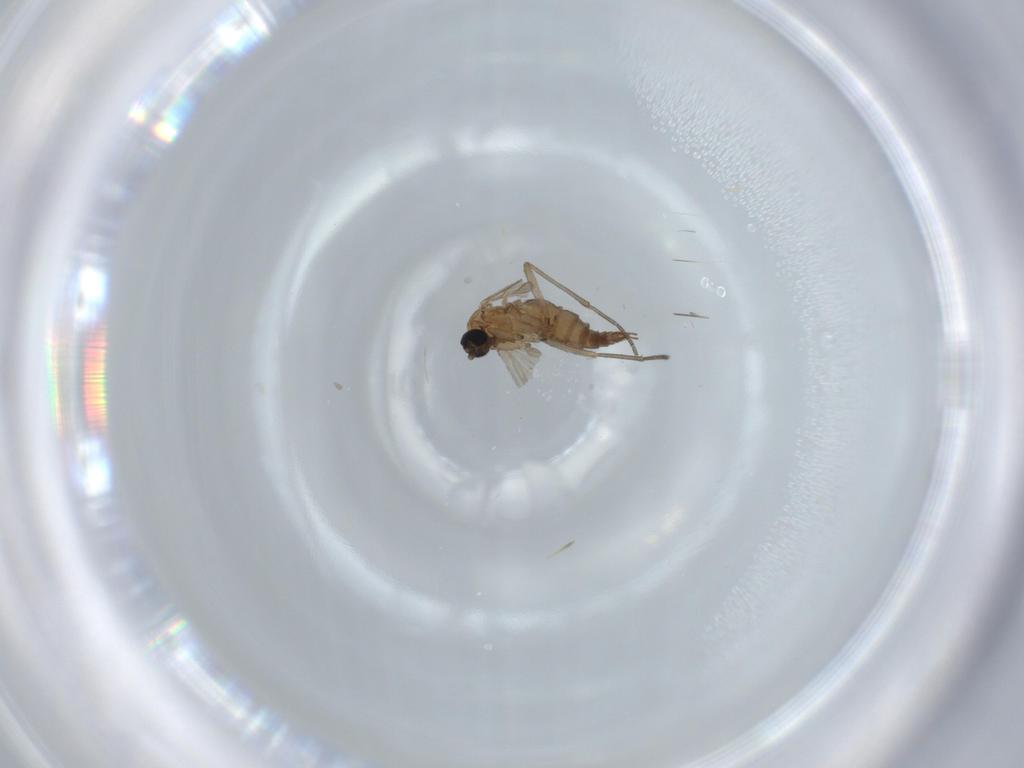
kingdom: Animalia
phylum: Arthropoda
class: Insecta
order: Diptera
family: Sciaridae
